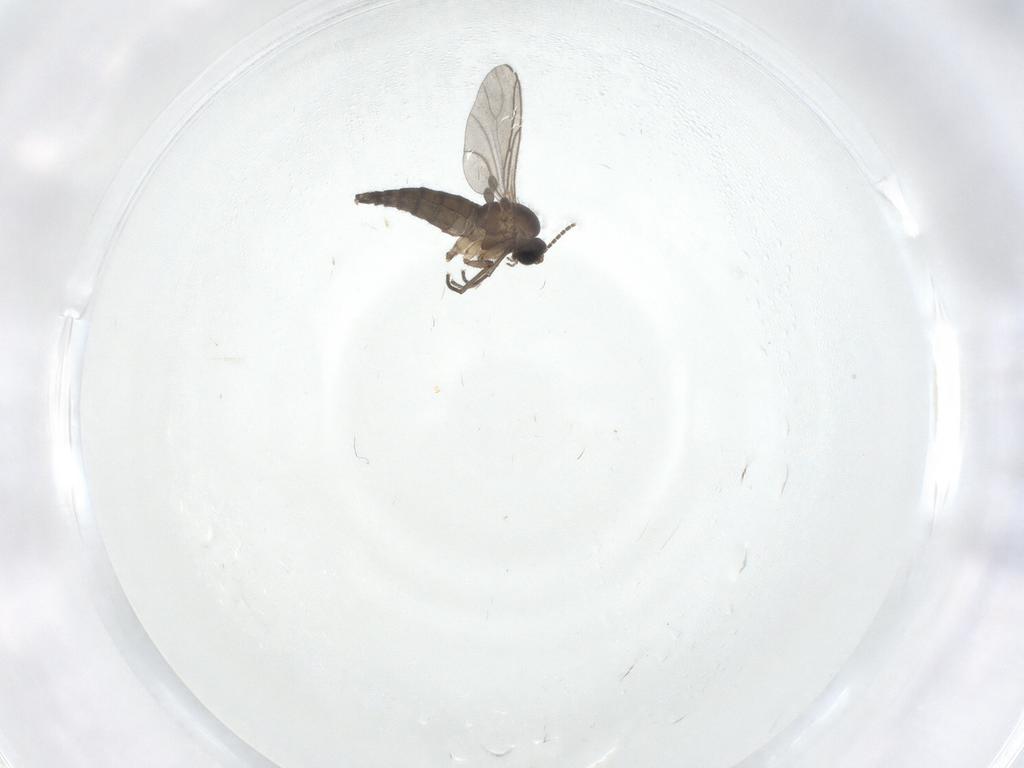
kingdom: Animalia
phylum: Arthropoda
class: Insecta
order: Diptera
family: Sciaridae
